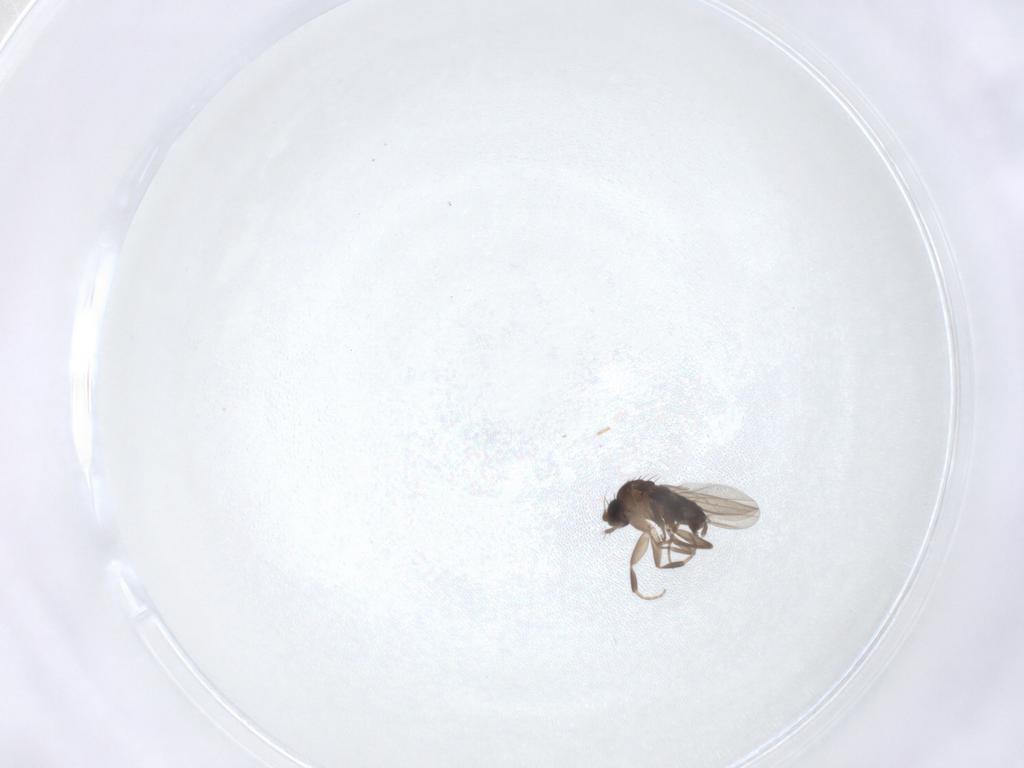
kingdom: Animalia
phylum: Arthropoda
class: Insecta
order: Diptera
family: Phoridae
